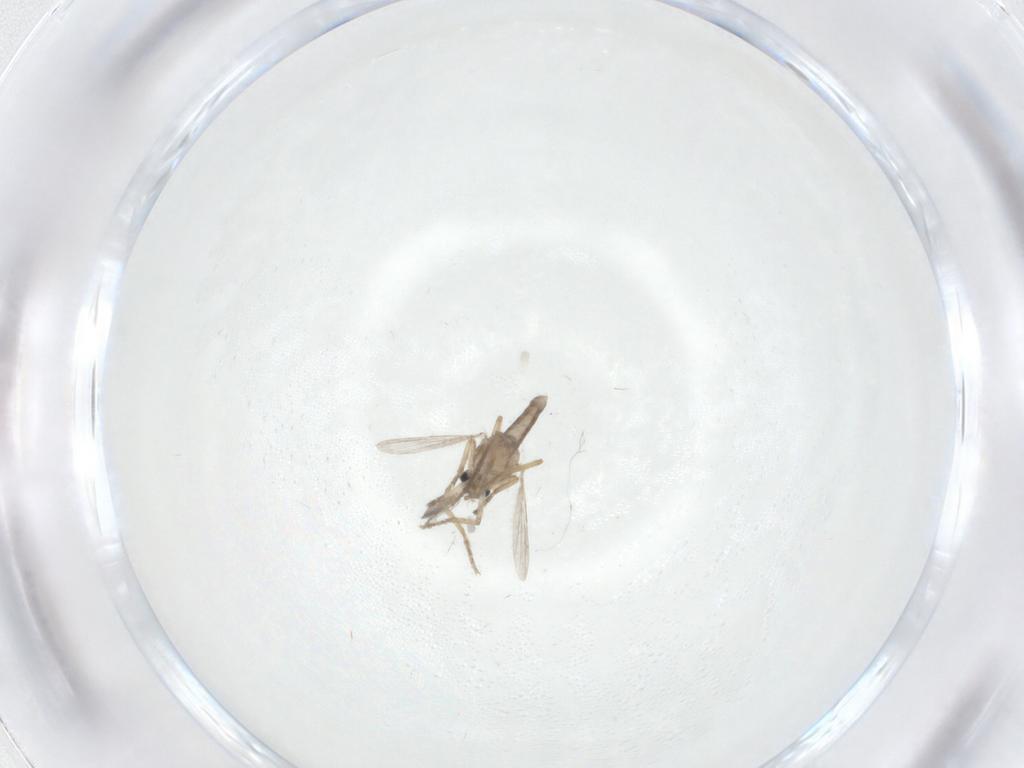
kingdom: Animalia
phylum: Arthropoda
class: Insecta
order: Diptera
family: Ceratopogonidae
